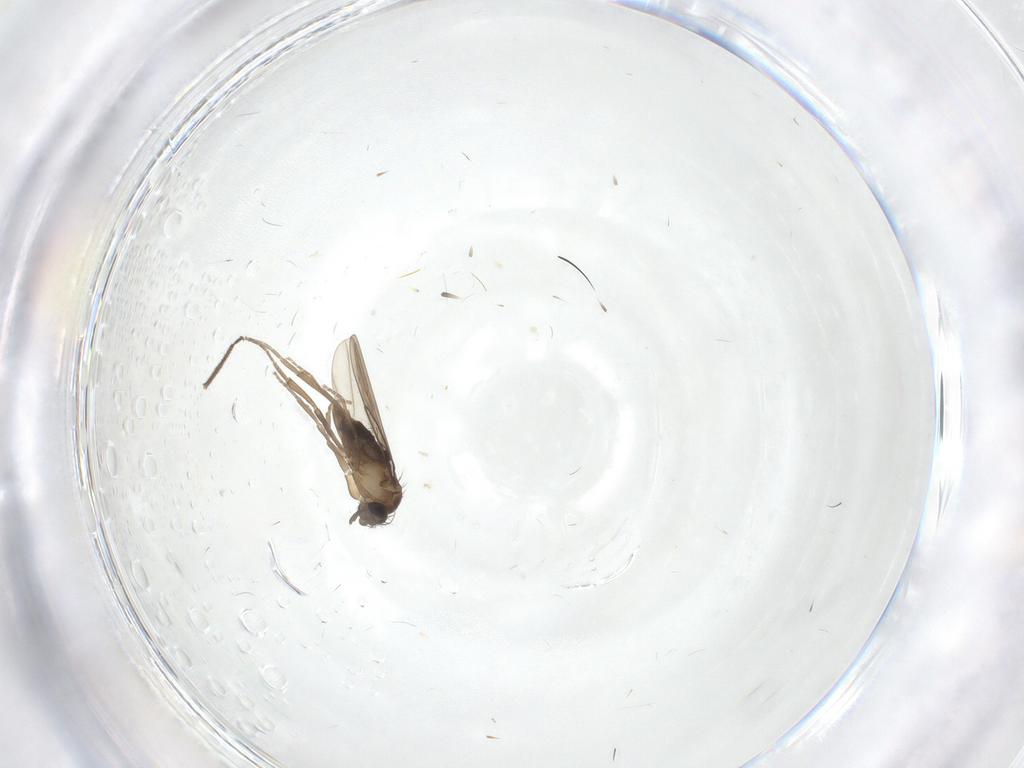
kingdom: Animalia
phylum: Arthropoda
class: Insecta
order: Diptera
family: Phoridae
